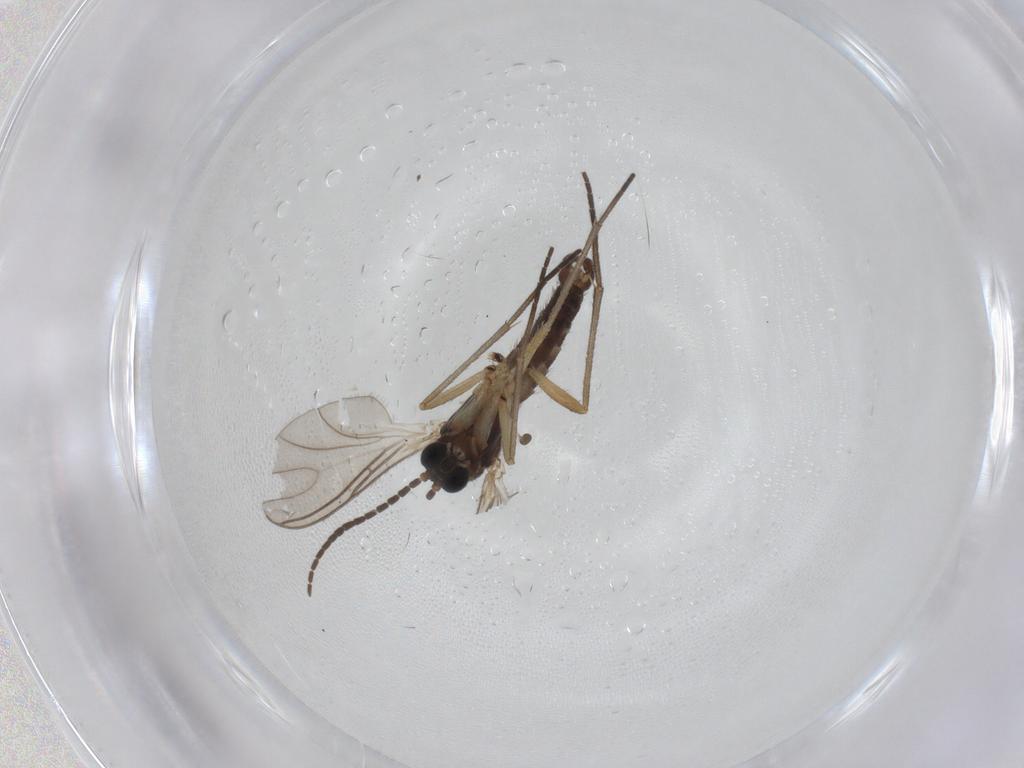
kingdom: Animalia
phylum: Arthropoda
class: Insecta
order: Diptera
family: Sciaridae
